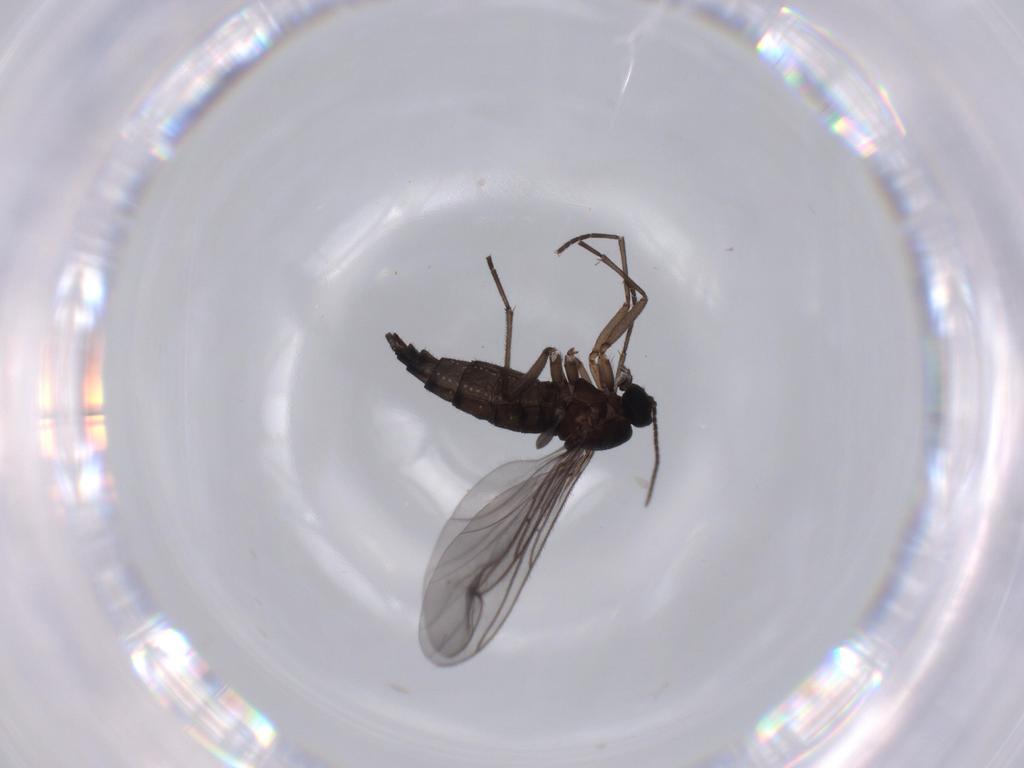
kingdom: Animalia
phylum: Arthropoda
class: Insecta
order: Diptera
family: Sciaridae
